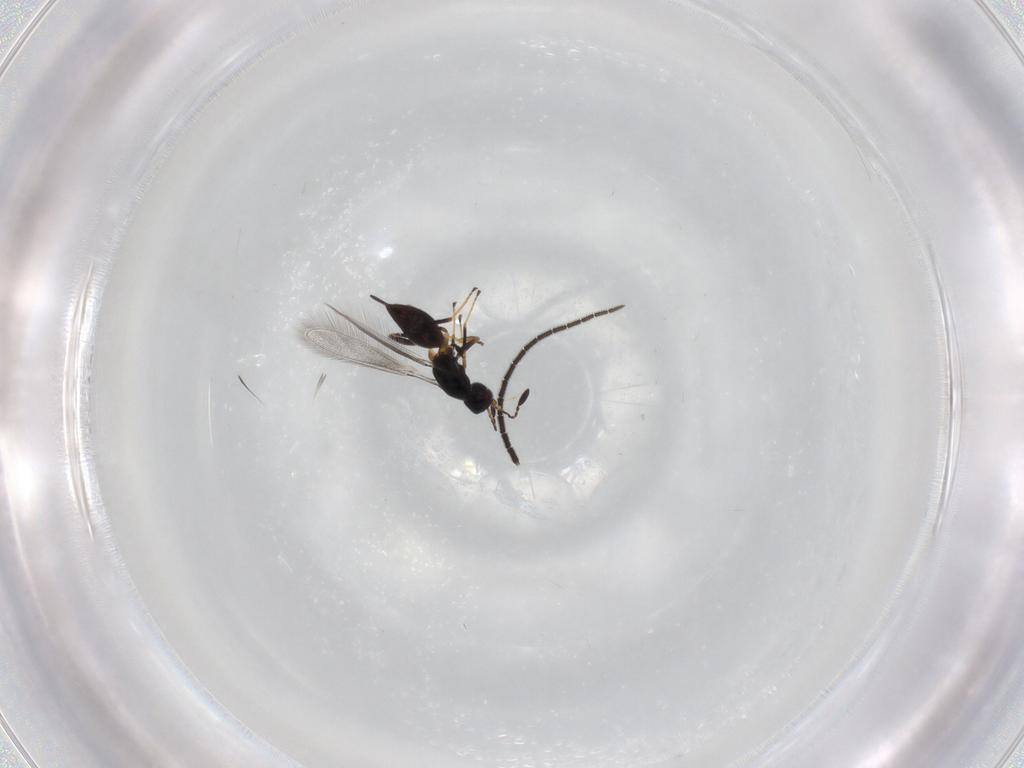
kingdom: Animalia
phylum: Arthropoda
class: Insecta
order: Hymenoptera
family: Mymaridae
